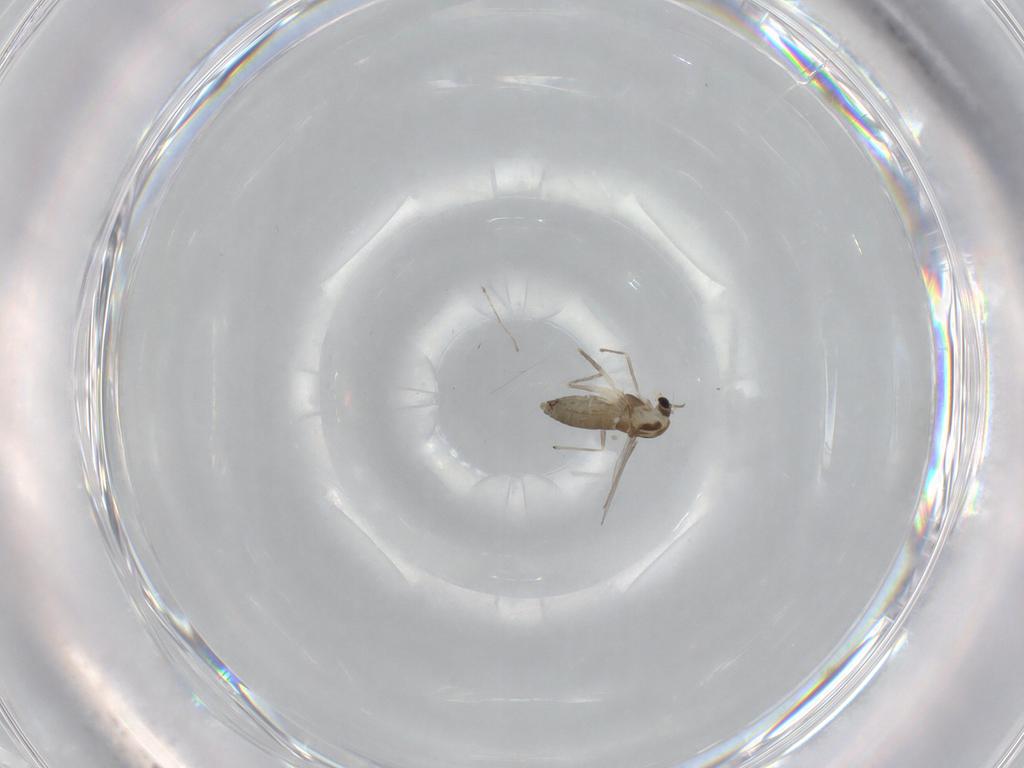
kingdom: Animalia
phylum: Arthropoda
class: Insecta
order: Diptera
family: Chironomidae
